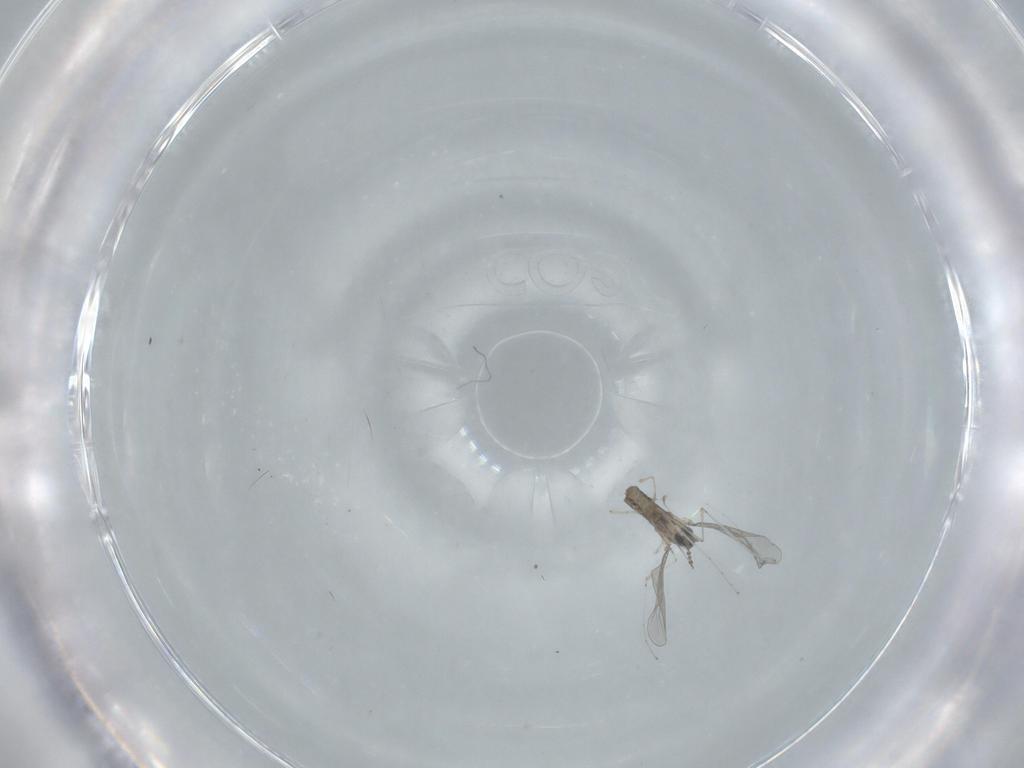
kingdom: Animalia
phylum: Arthropoda
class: Insecta
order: Diptera
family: Cecidomyiidae
